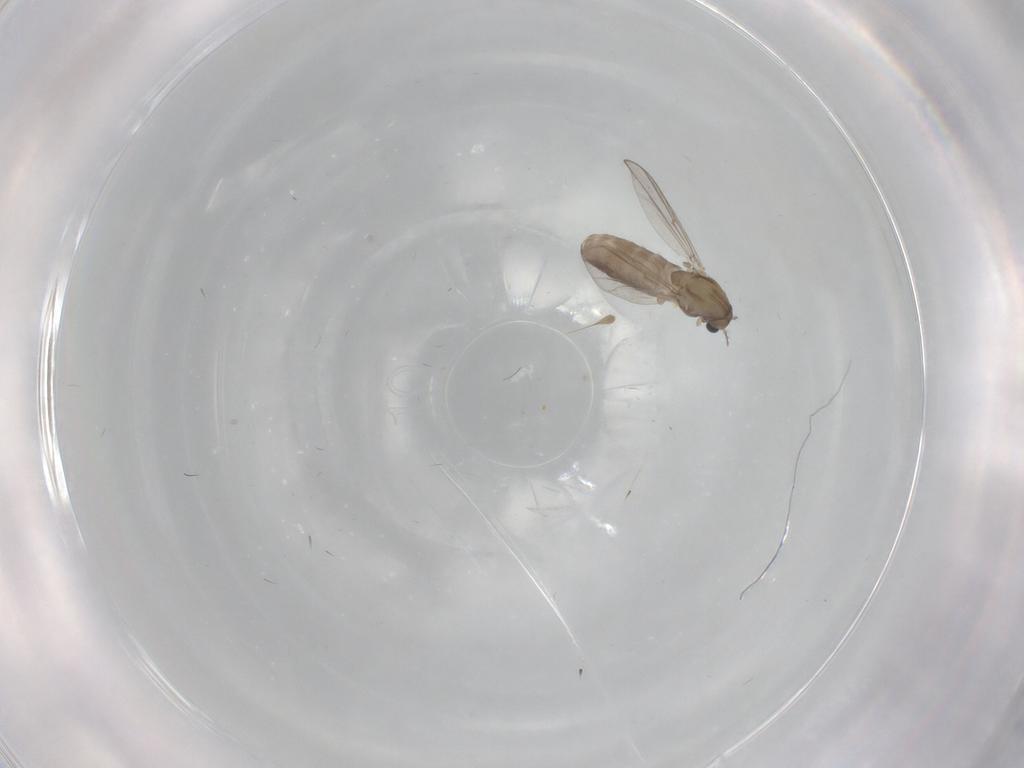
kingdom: Animalia
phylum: Arthropoda
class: Insecta
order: Diptera
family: Chironomidae
